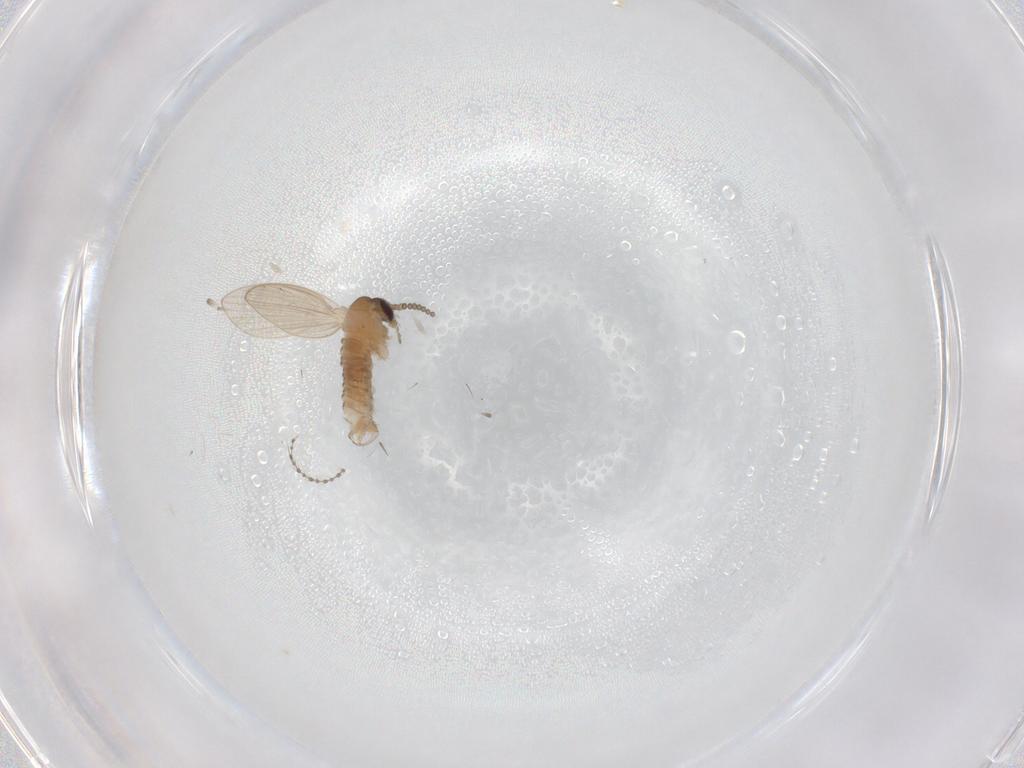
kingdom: Animalia
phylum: Arthropoda
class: Insecta
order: Diptera
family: Psychodidae
